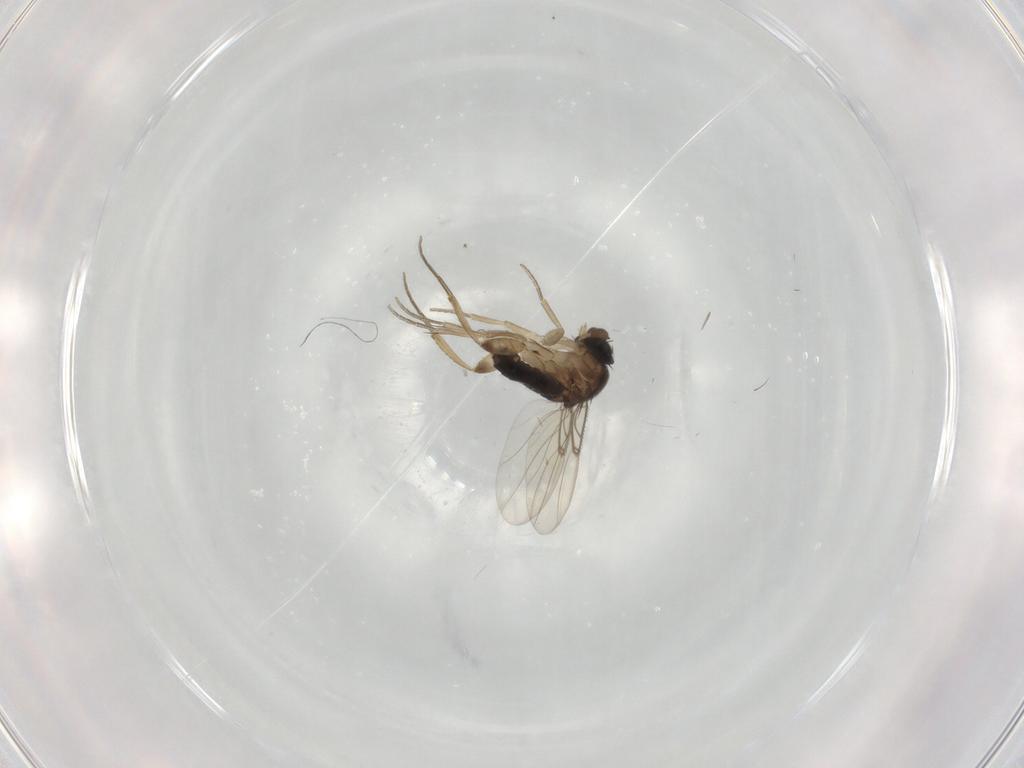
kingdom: Animalia
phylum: Arthropoda
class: Insecta
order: Diptera
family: Phoridae
